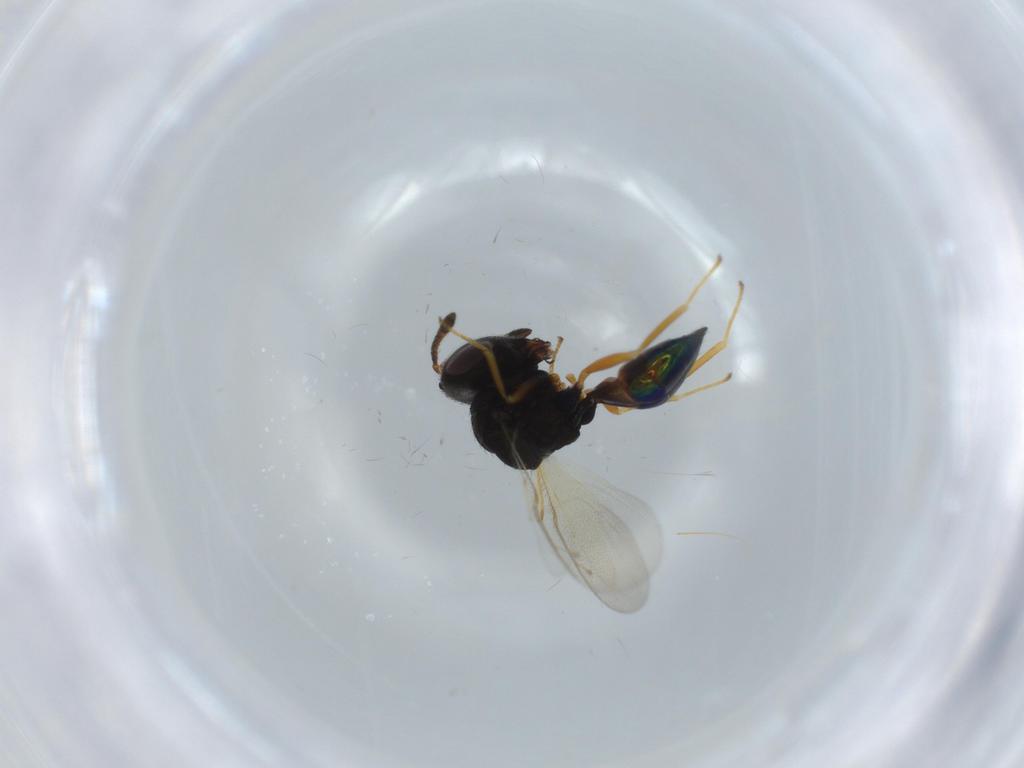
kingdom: Animalia
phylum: Arthropoda
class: Insecta
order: Hymenoptera
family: Pteromalidae
